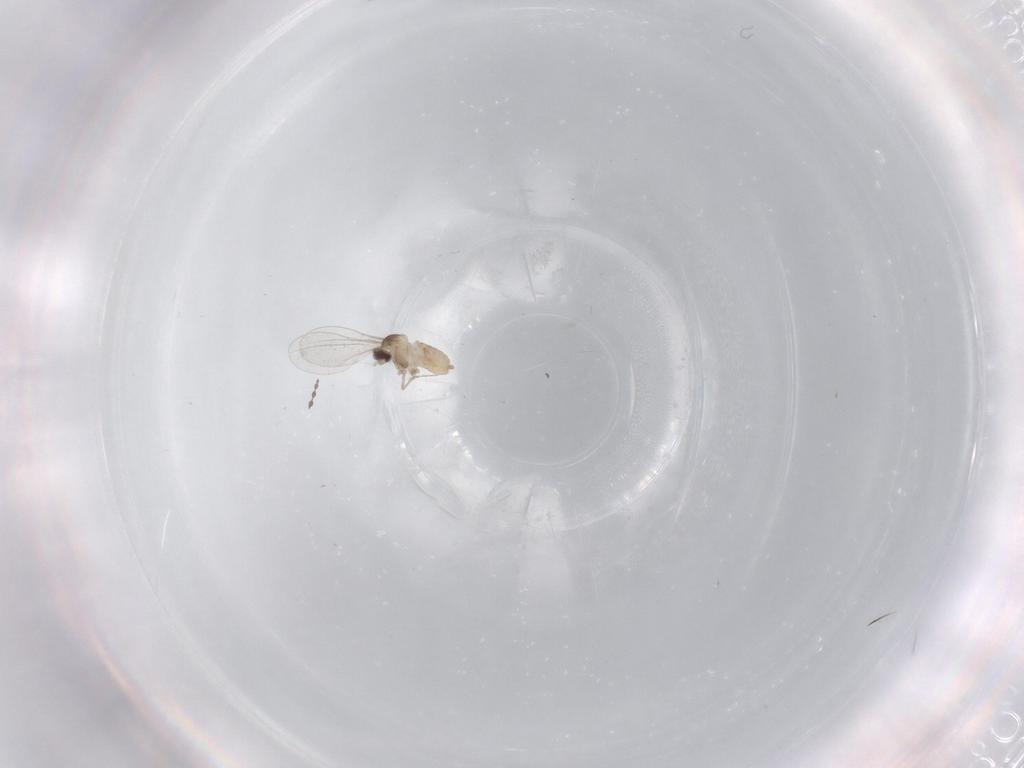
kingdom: Animalia
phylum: Arthropoda
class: Insecta
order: Diptera
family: Cecidomyiidae
